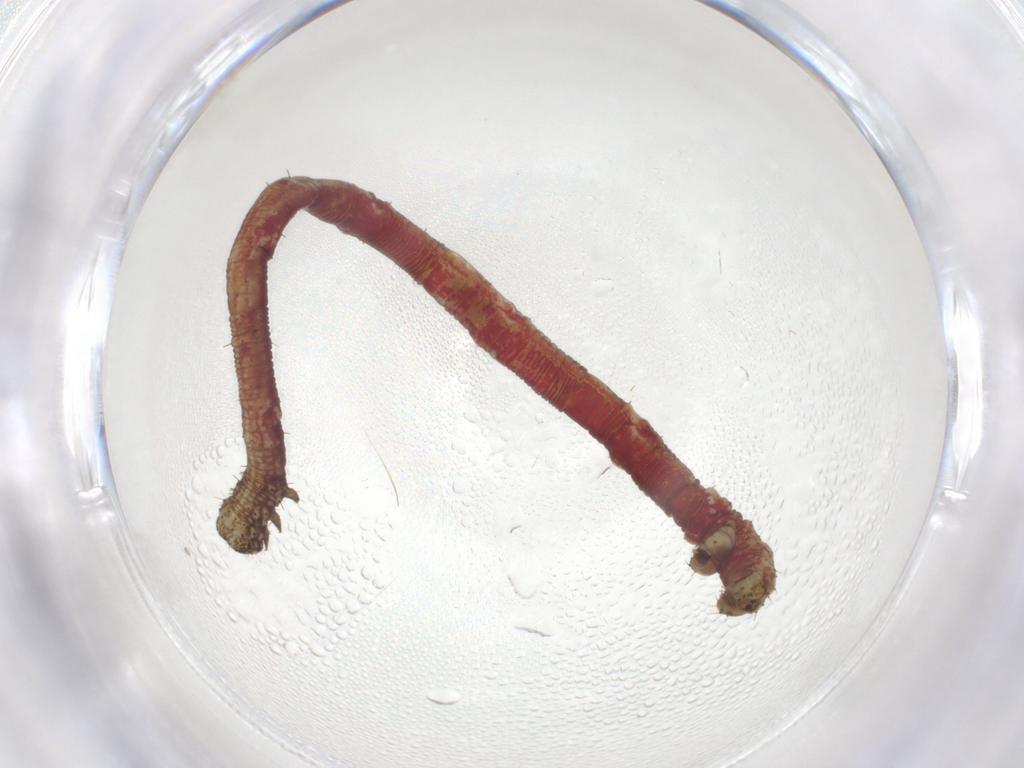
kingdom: Animalia
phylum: Arthropoda
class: Insecta
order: Lepidoptera
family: Geometridae
